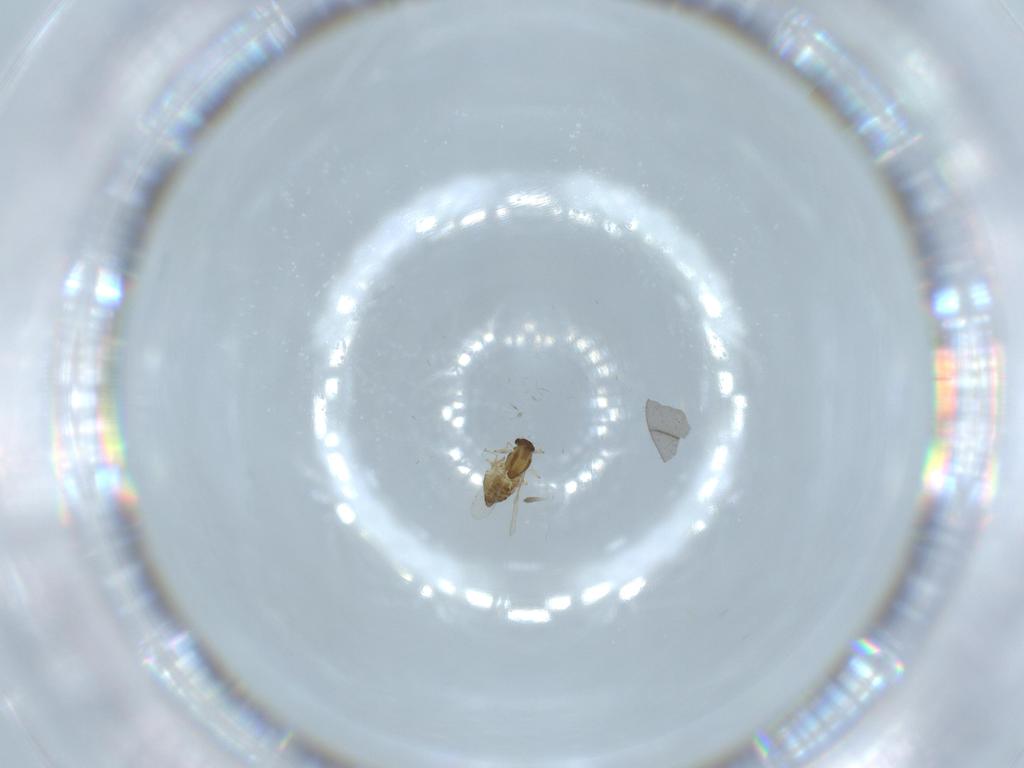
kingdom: Animalia
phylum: Arthropoda
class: Insecta
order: Diptera
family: Chironomidae
